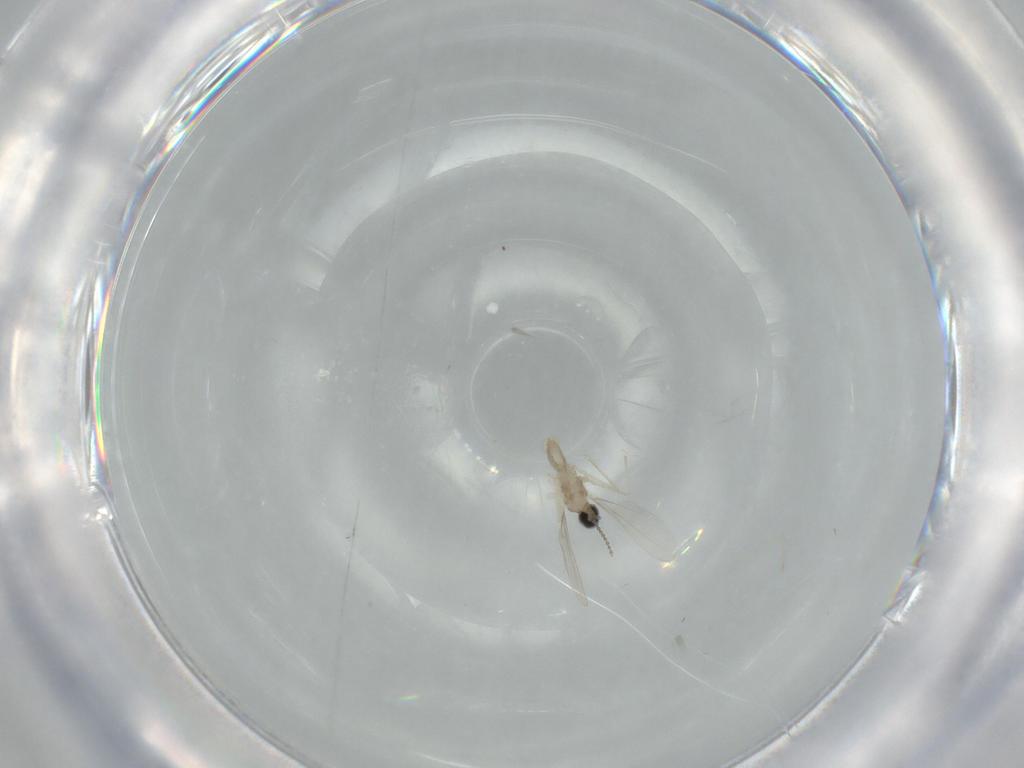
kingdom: Animalia
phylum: Arthropoda
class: Insecta
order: Diptera
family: Cecidomyiidae
